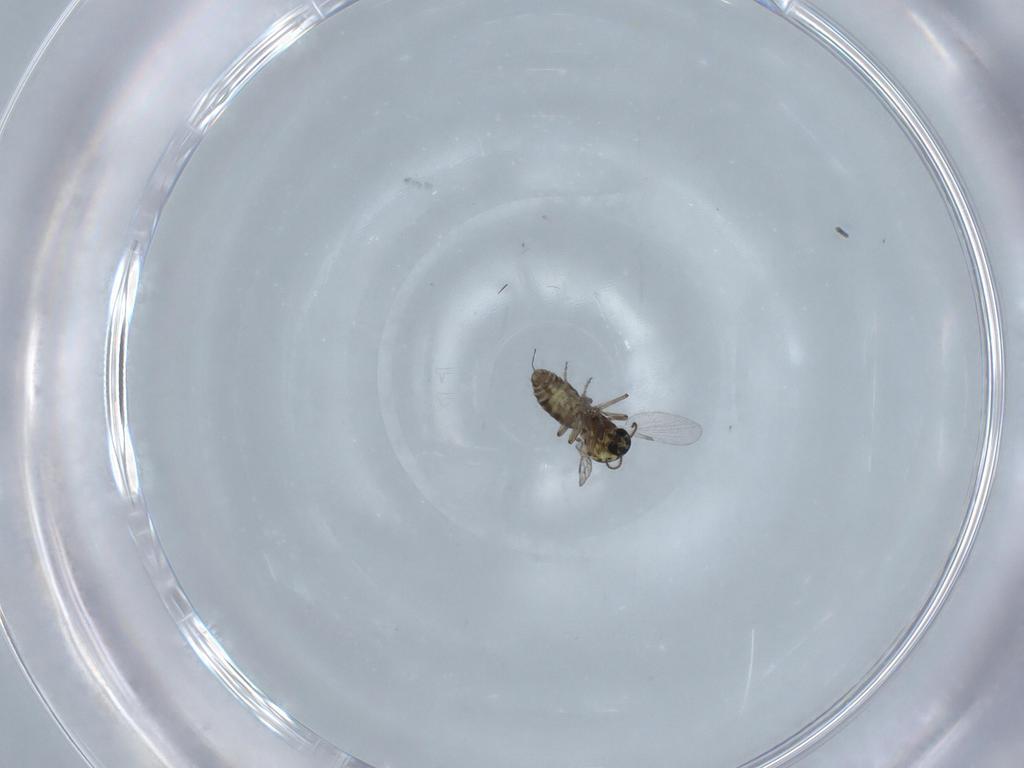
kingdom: Animalia
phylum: Arthropoda
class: Insecta
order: Diptera
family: Ceratopogonidae
